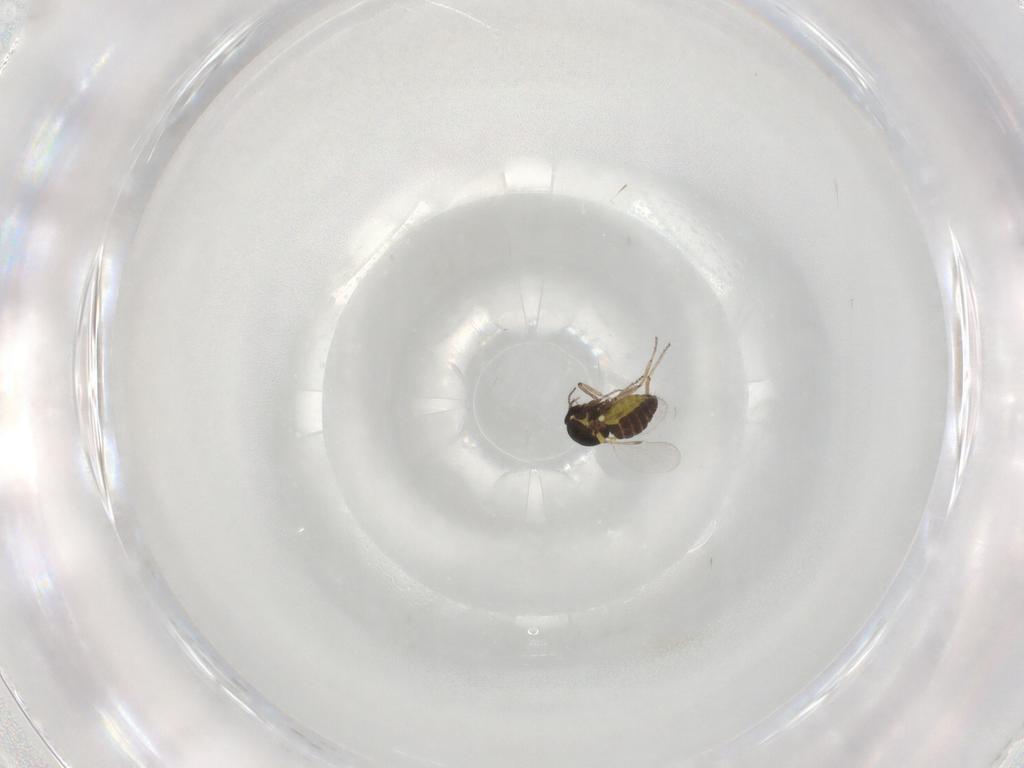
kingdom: Animalia
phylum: Arthropoda
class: Insecta
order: Diptera
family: Ceratopogonidae
